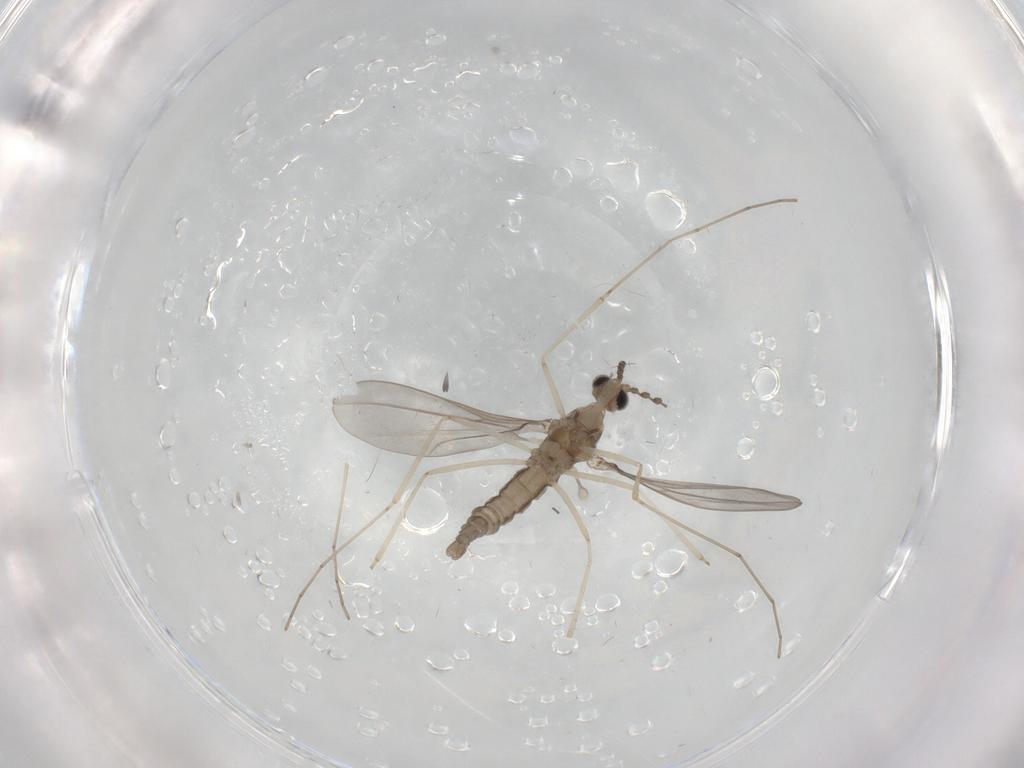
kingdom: Animalia
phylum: Arthropoda
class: Insecta
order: Diptera
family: Cecidomyiidae
